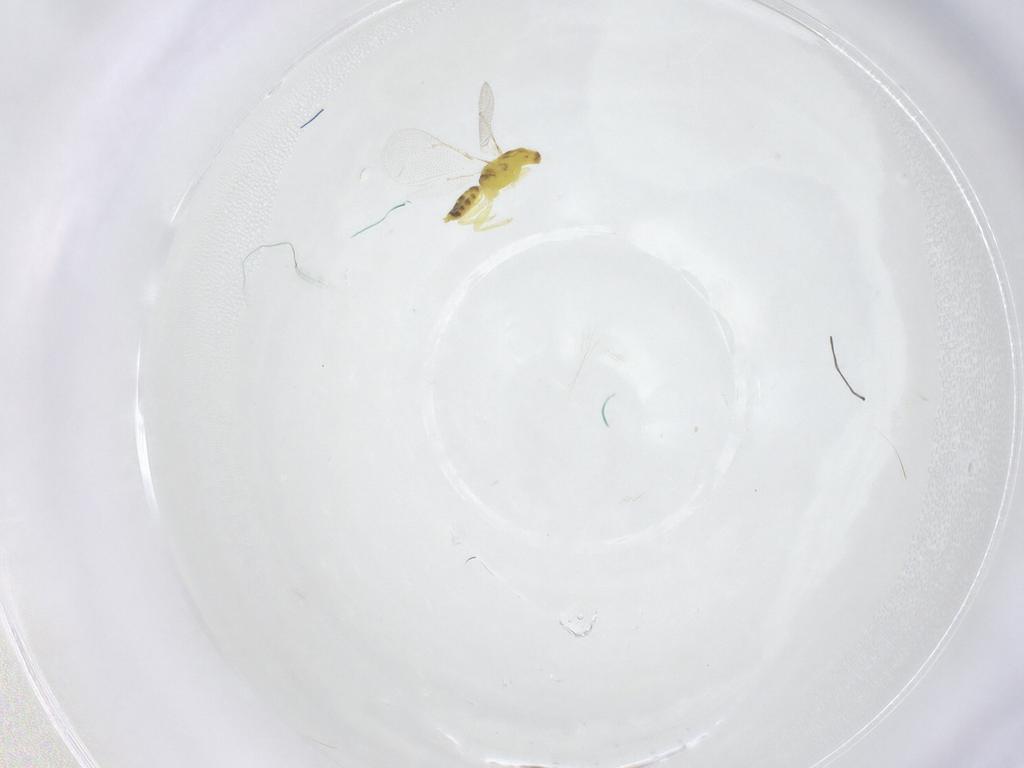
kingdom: Animalia
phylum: Arthropoda
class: Insecta
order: Hymenoptera
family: Eulophidae
